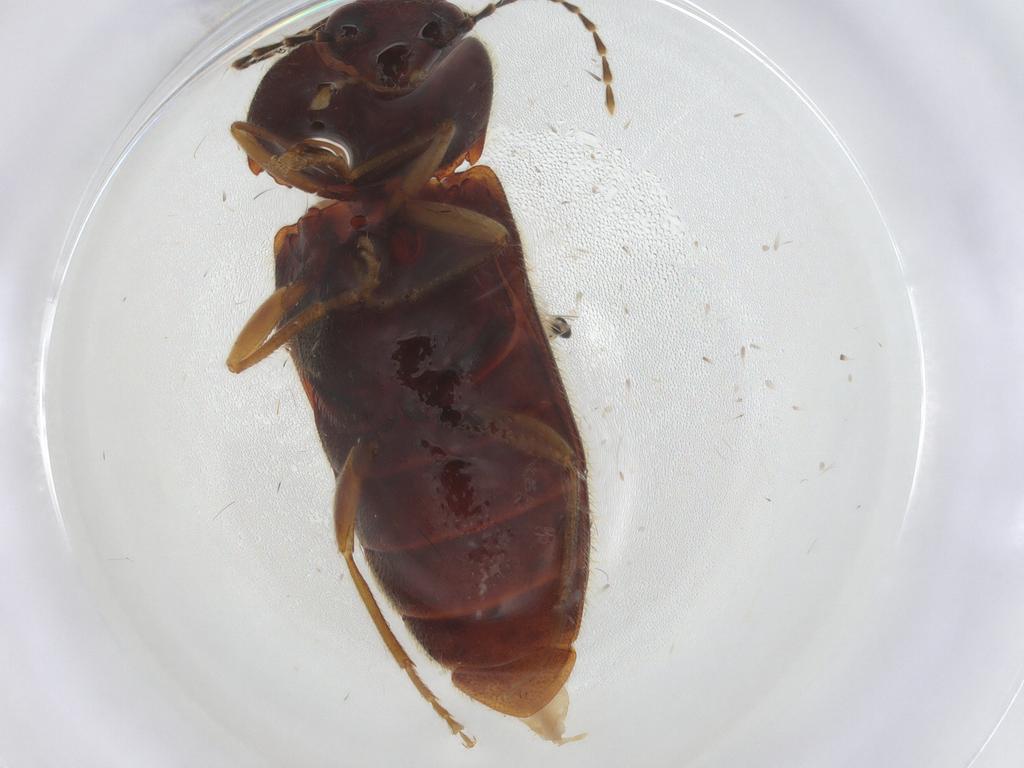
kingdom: Animalia
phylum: Arthropoda
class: Insecta
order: Coleoptera
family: Elateridae
